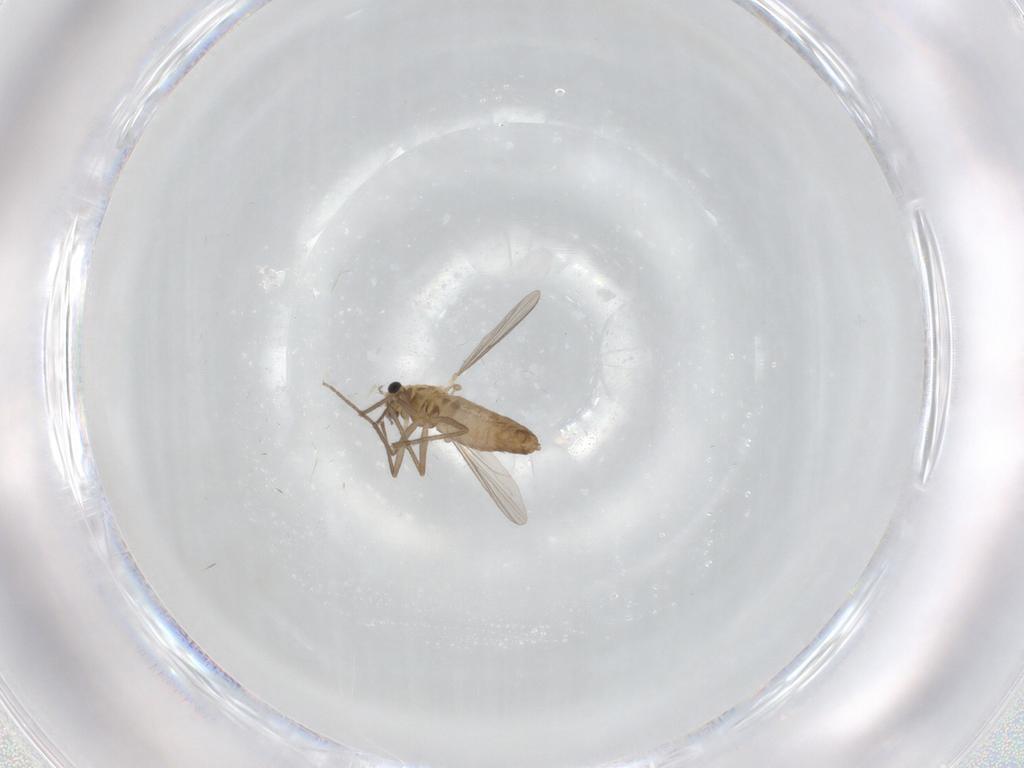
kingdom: Animalia
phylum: Arthropoda
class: Insecta
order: Diptera
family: Chironomidae
